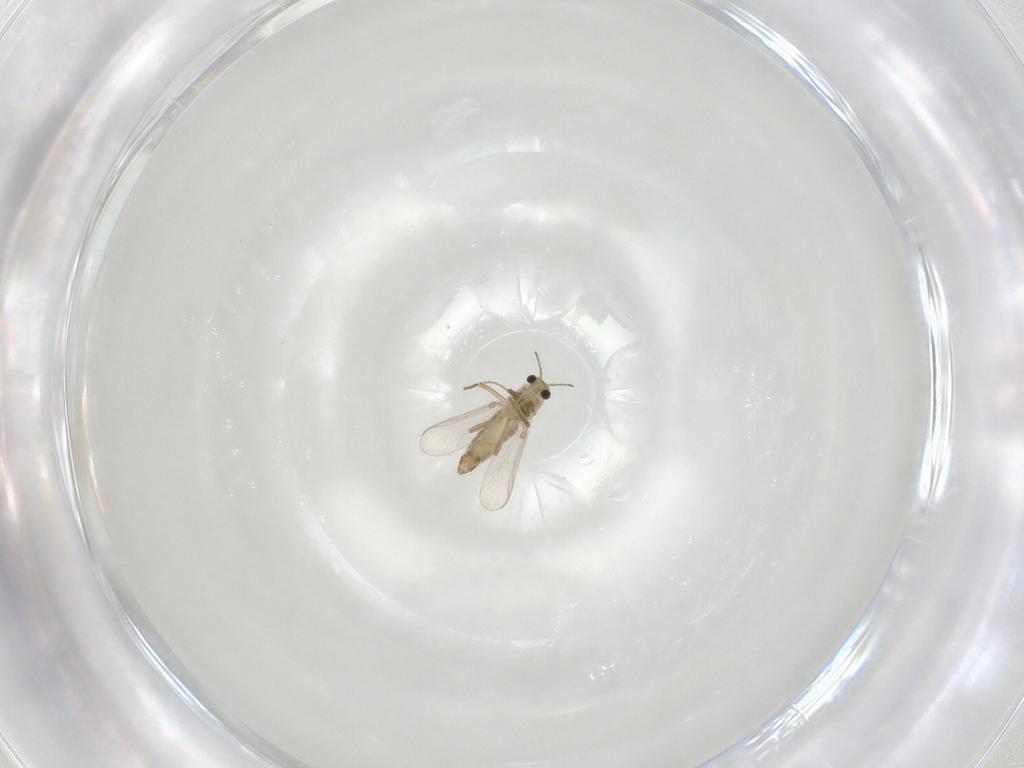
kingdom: Animalia
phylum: Arthropoda
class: Insecta
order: Diptera
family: Chironomidae
